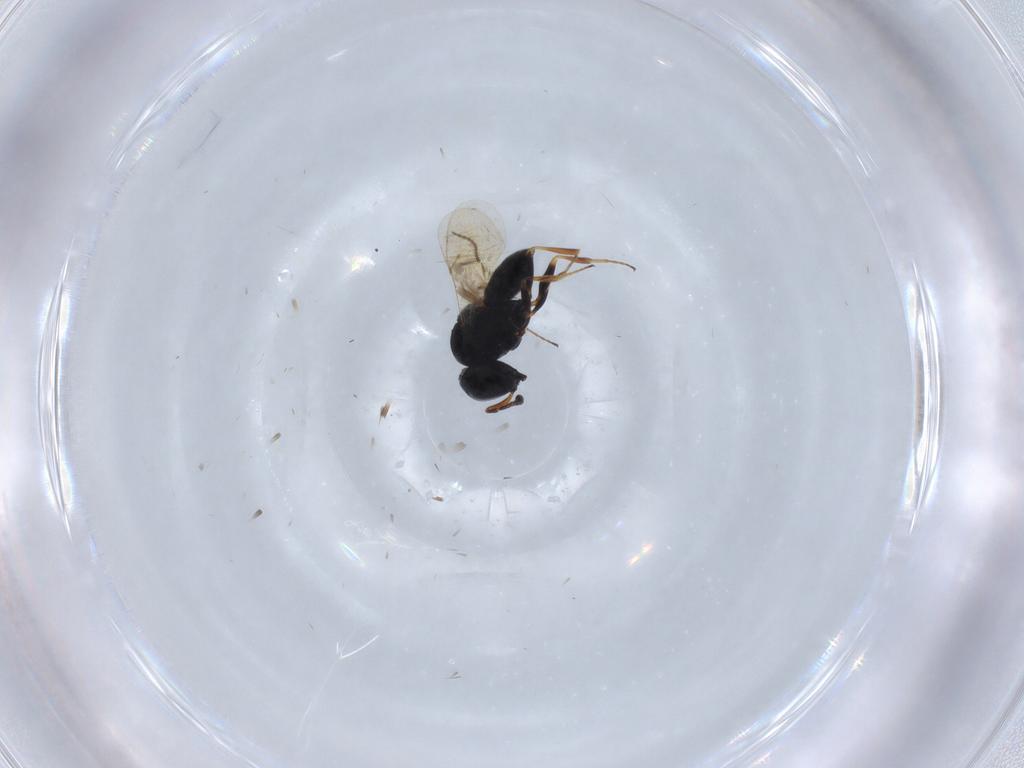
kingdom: Animalia
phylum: Arthropoda
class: Insecta
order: Coleoptera
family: Curculionidae
